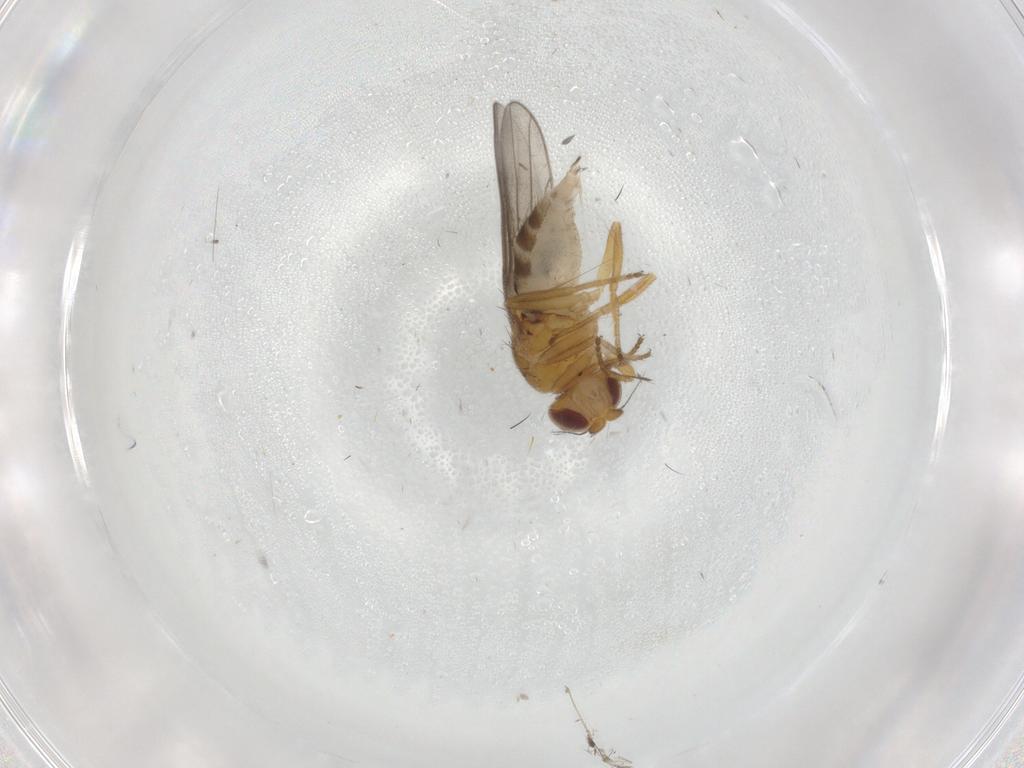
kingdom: Animalia
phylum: Arthropoda
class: Insecta
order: Diptera
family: Chloropidae
